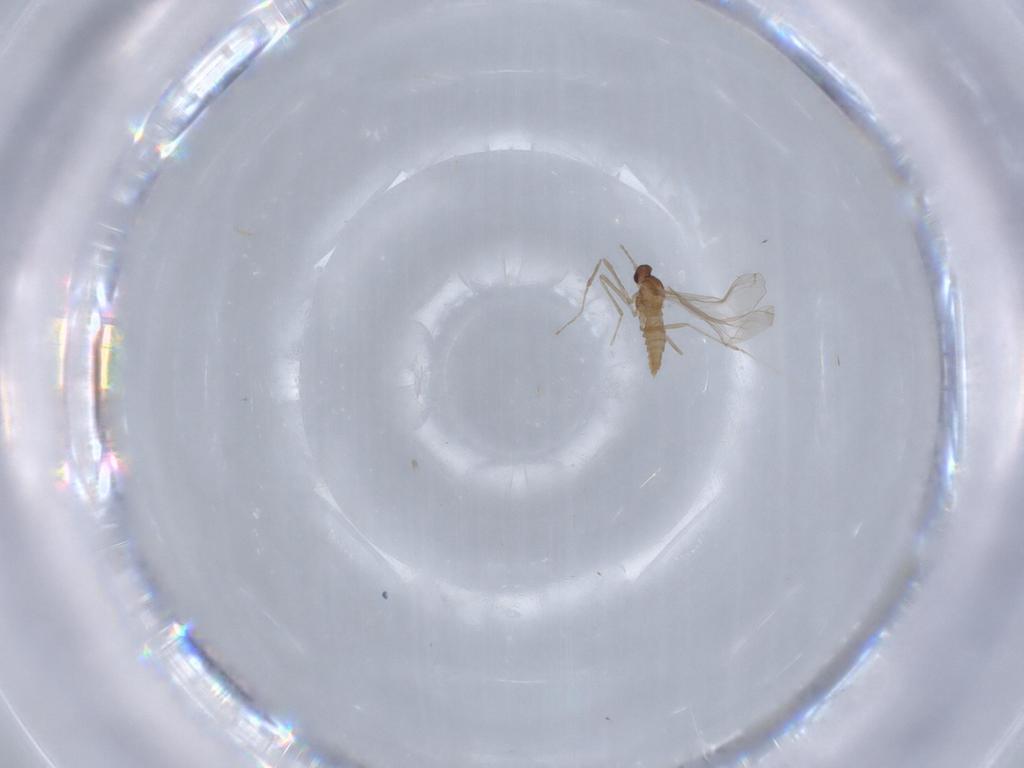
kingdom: Animalia
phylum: Arthropoda
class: Insecta
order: Diptera
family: Cecidomyiidae
